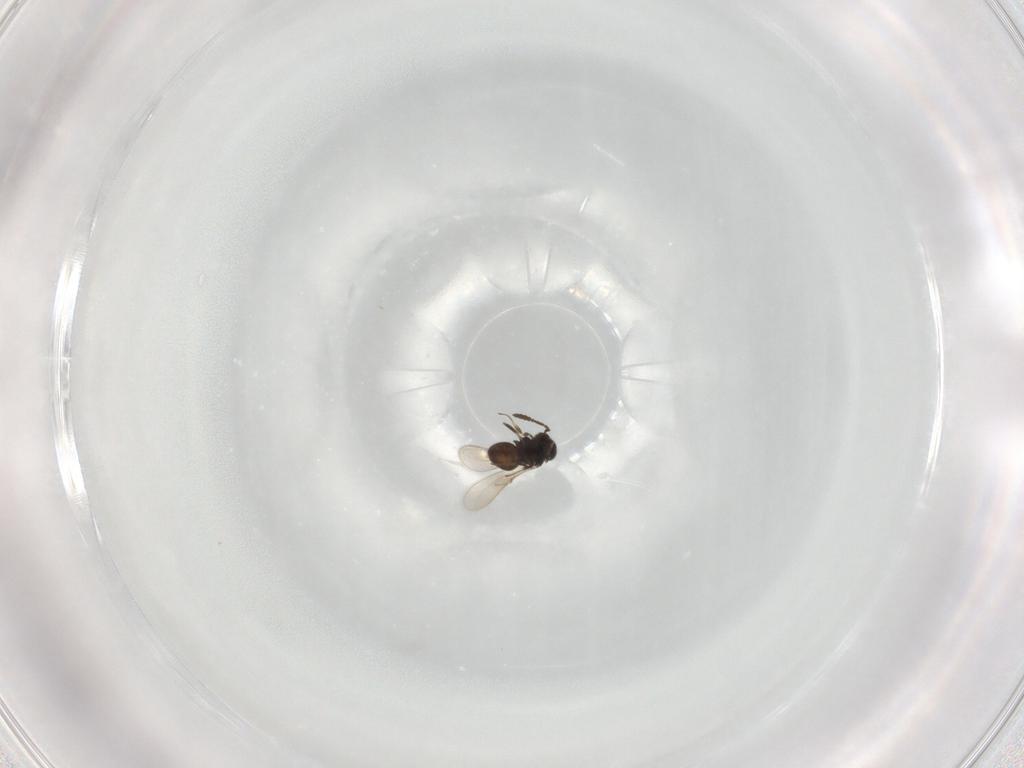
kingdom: Animalia
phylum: Arthropoda
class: Insecta
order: Hymenoptera
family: Scelionidae
